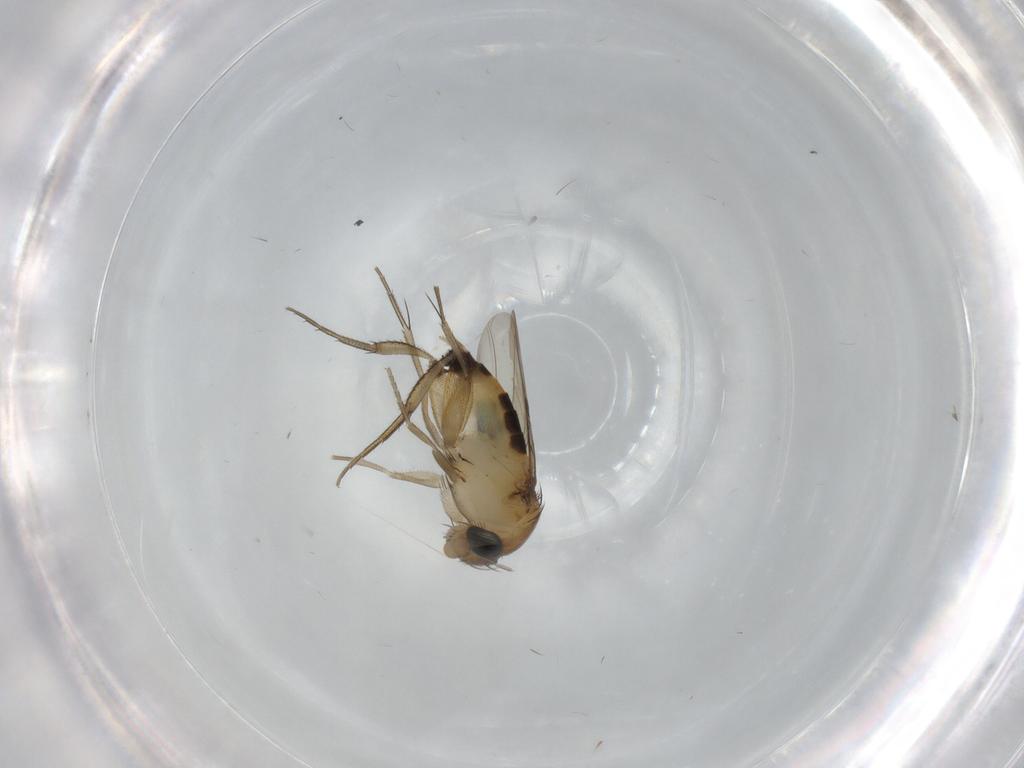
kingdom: Animalia
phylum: Arthropoda
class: Insecta
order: Diptera
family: Phoridae
